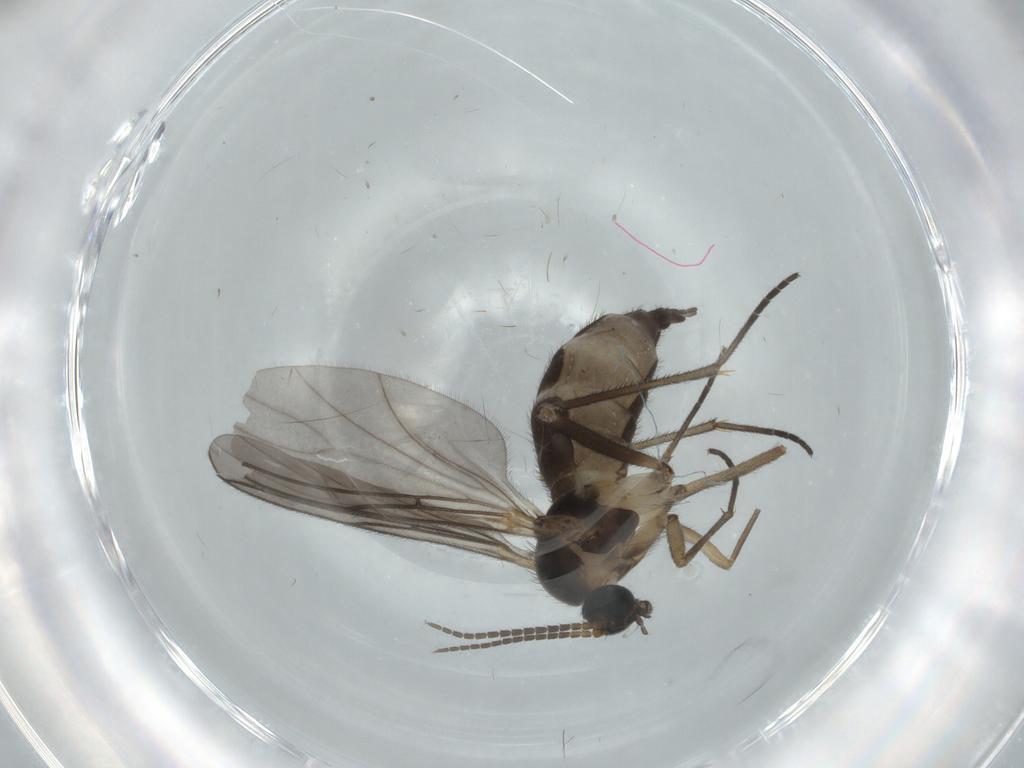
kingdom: Animalia
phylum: Arthropoda
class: Insecta
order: Diptera
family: Sciaridae
